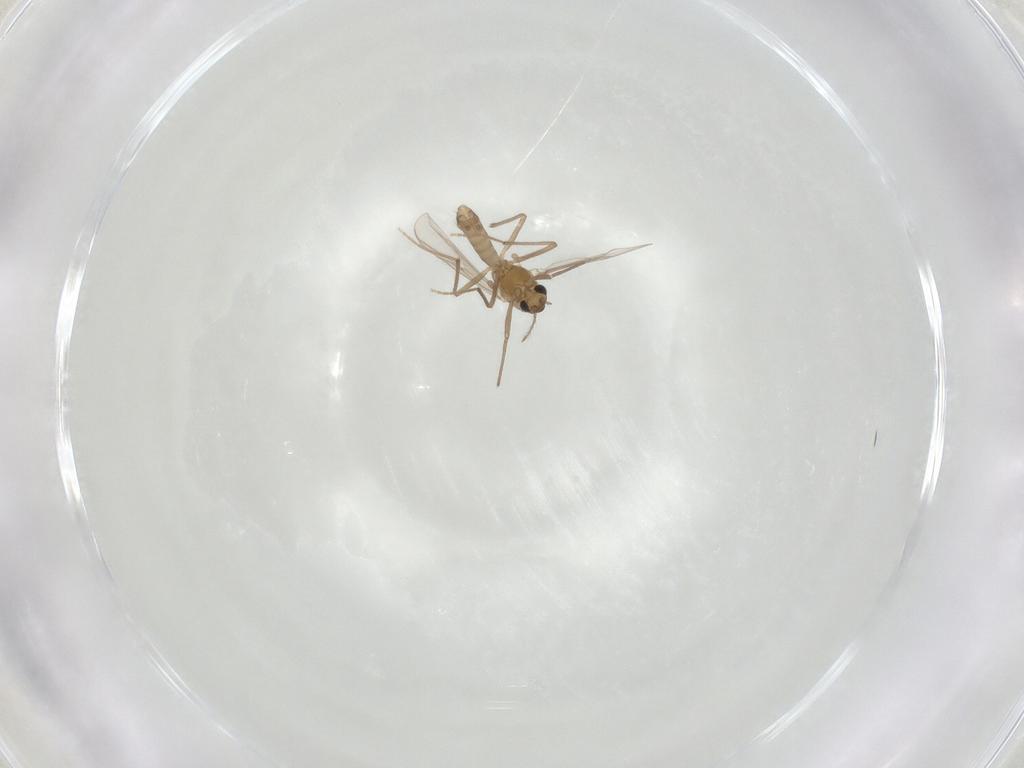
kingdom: Animalia
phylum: Arthropoda
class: Insecta
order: Diptera
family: Chironomidae
